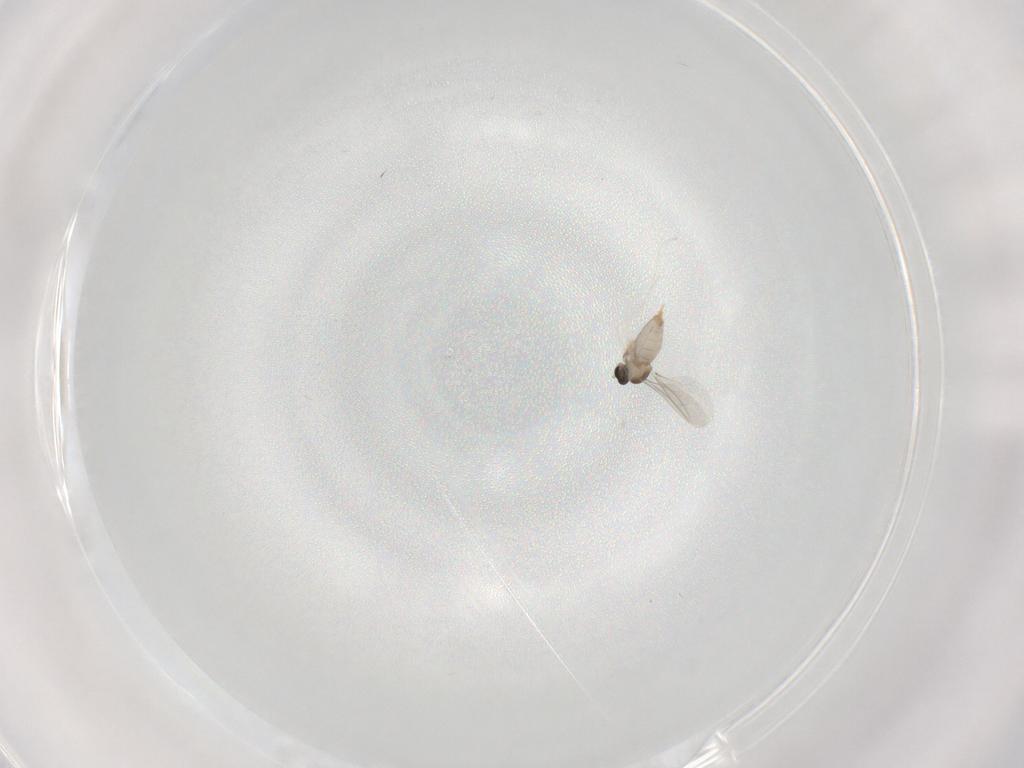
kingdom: Animalia
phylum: Arthropoda
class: Insecta
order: Diptera
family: Cecidomyiidae
